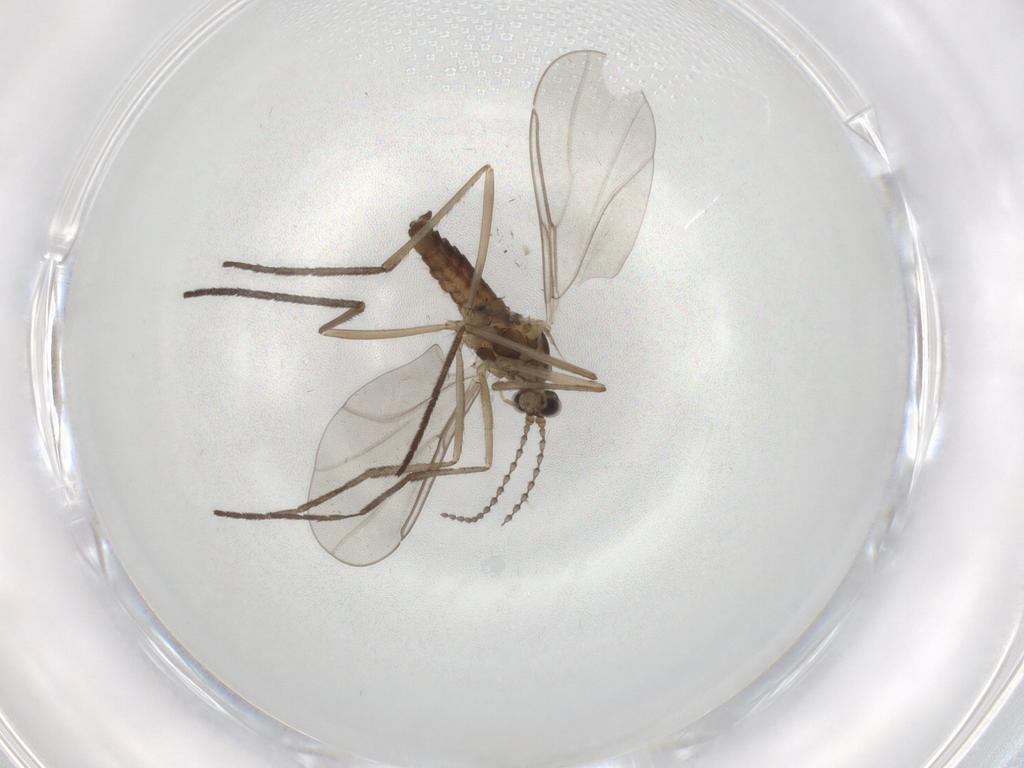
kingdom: Animalia
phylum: Arthropoda
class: Insecta
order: Diptera
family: Cecidomyiidae
